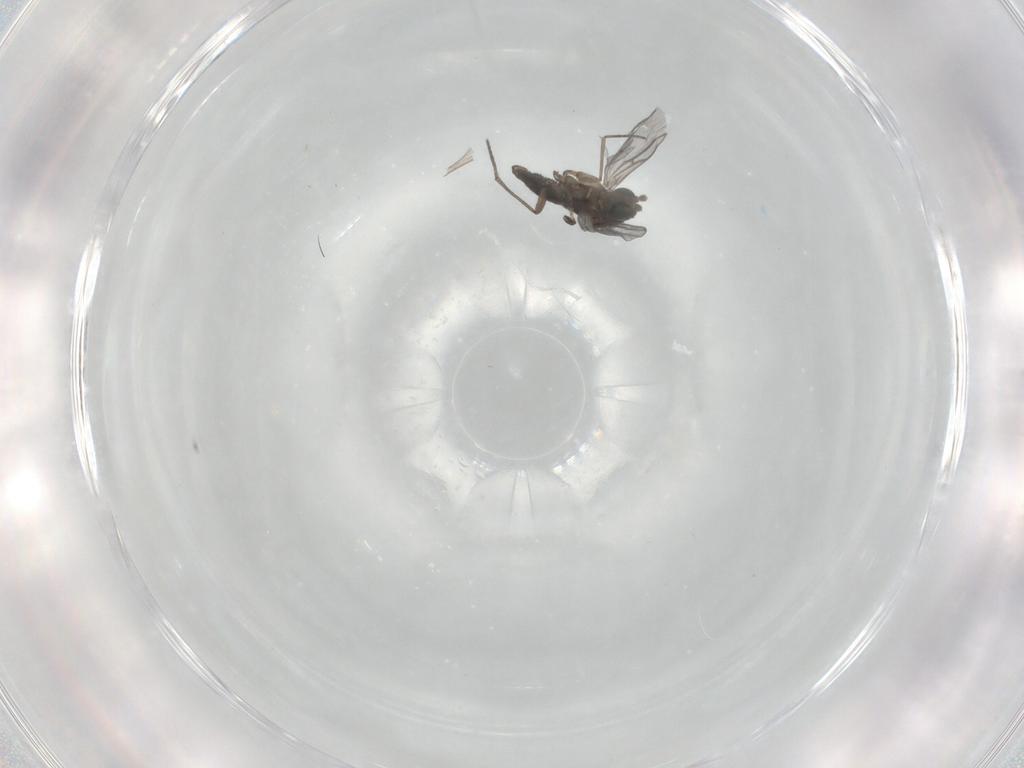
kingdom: Animalia
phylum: Arthropoda
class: Insecta
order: Diptera
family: Sciaridae
